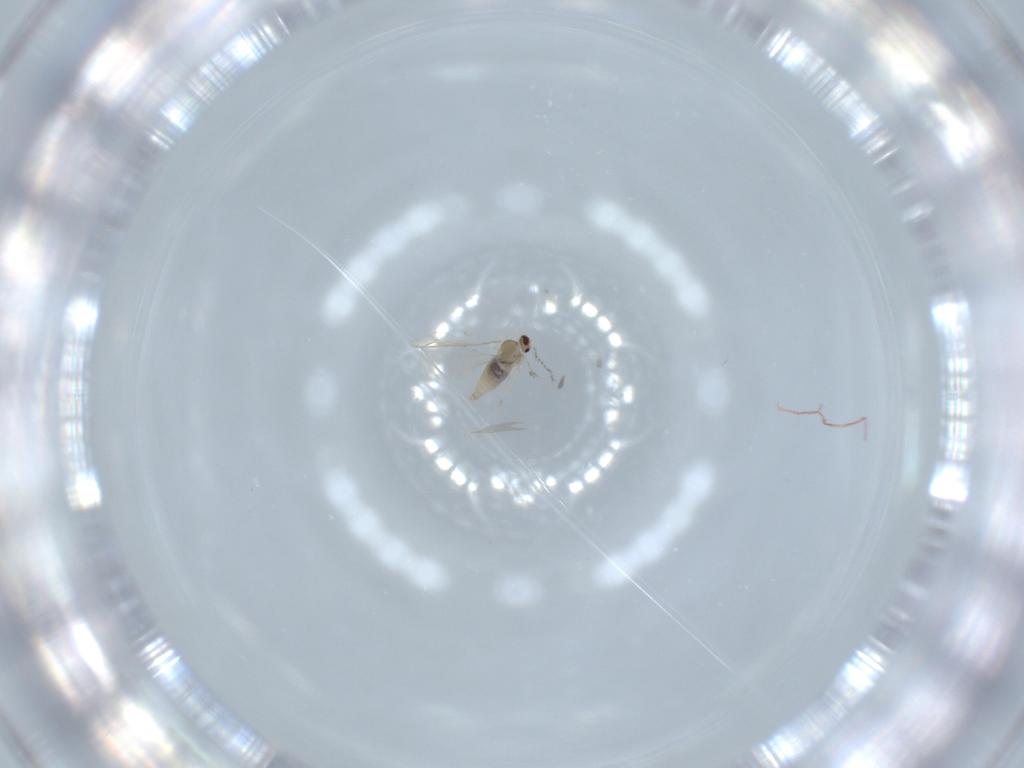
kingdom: Animalia
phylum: Arthropoda
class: Insecta
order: Diptera
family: Cecidomyiidae
